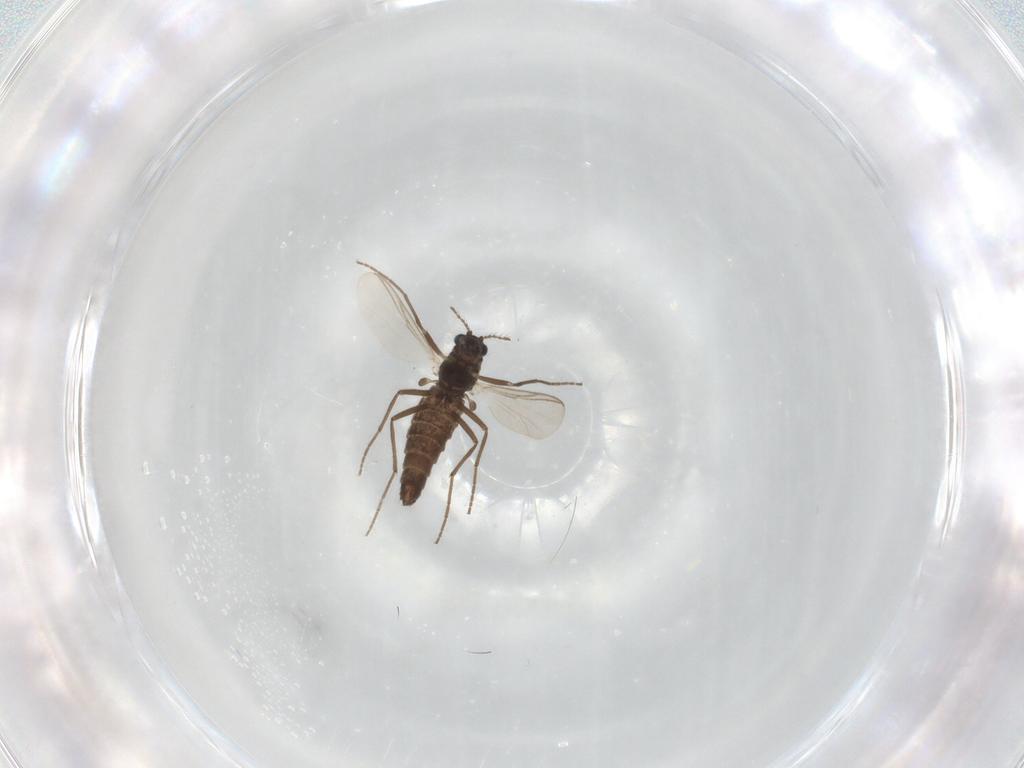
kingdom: Animalia
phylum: Arthropoda
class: Insecta
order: Diptera
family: Chironomidae
